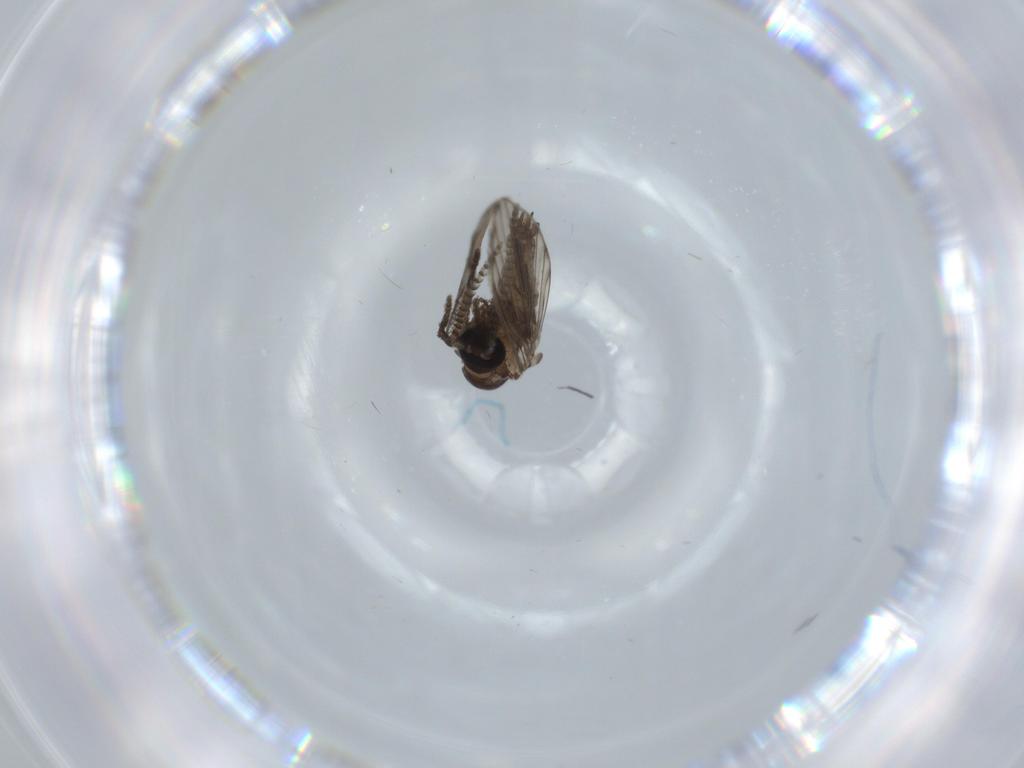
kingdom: Animalia
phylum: Arthropoda
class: Insecta
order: Diptera
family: Psychodidae
